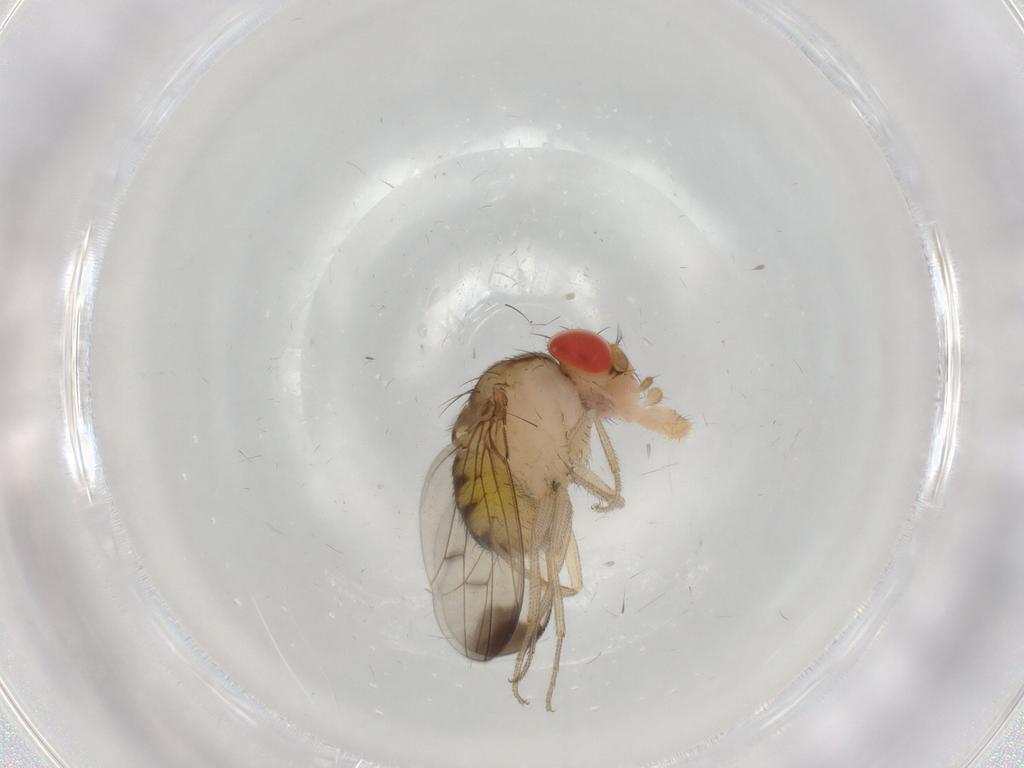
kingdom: Animalia
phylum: Arthropoda
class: Insecta
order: Diptera
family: Drosophilidae
